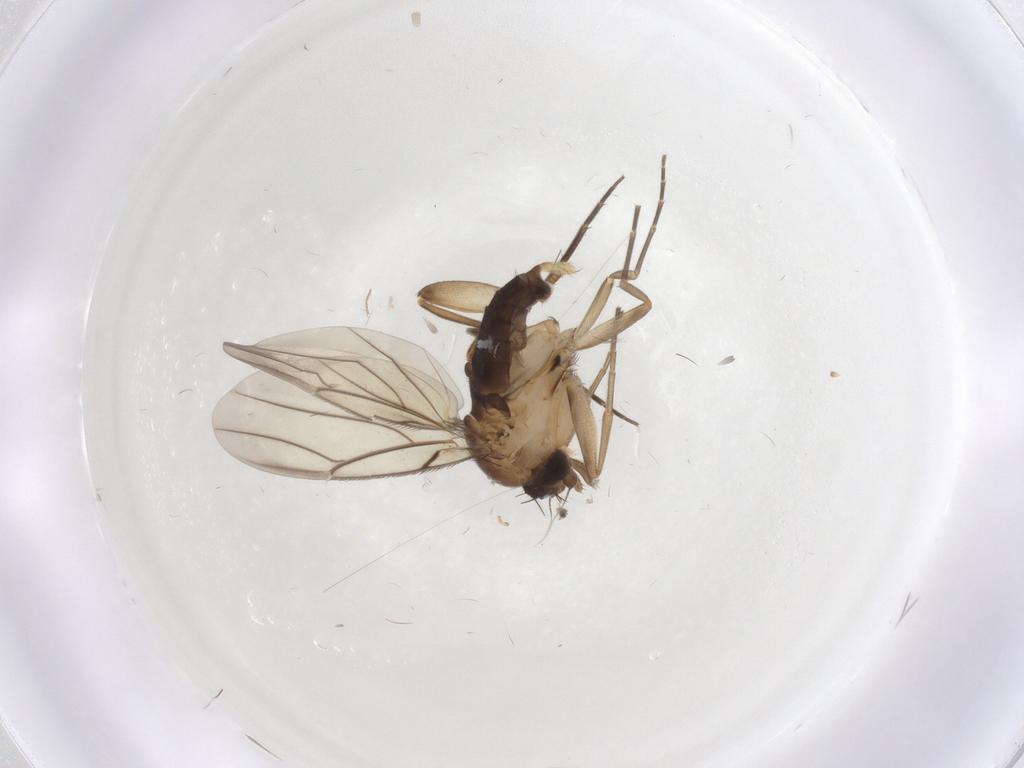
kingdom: Animalia
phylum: Arthropoda
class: Insecta
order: Diptera
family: Phoridae
